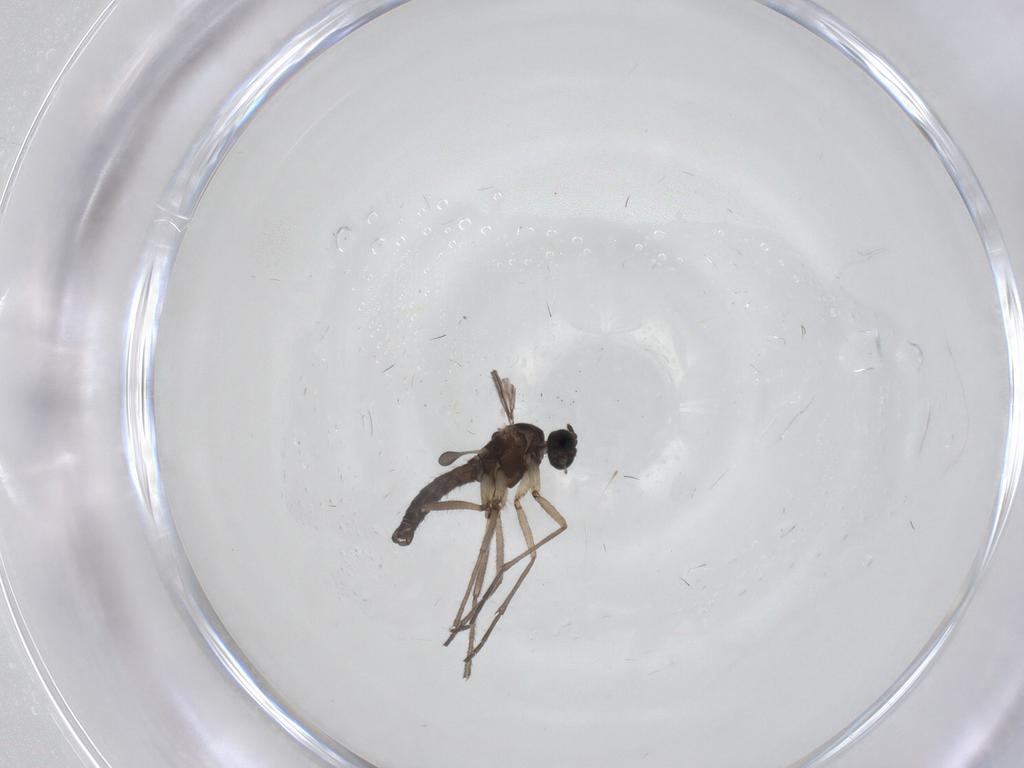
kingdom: Animalia
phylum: Arthropoda
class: Insecta
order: Diptera
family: Sciaridae
